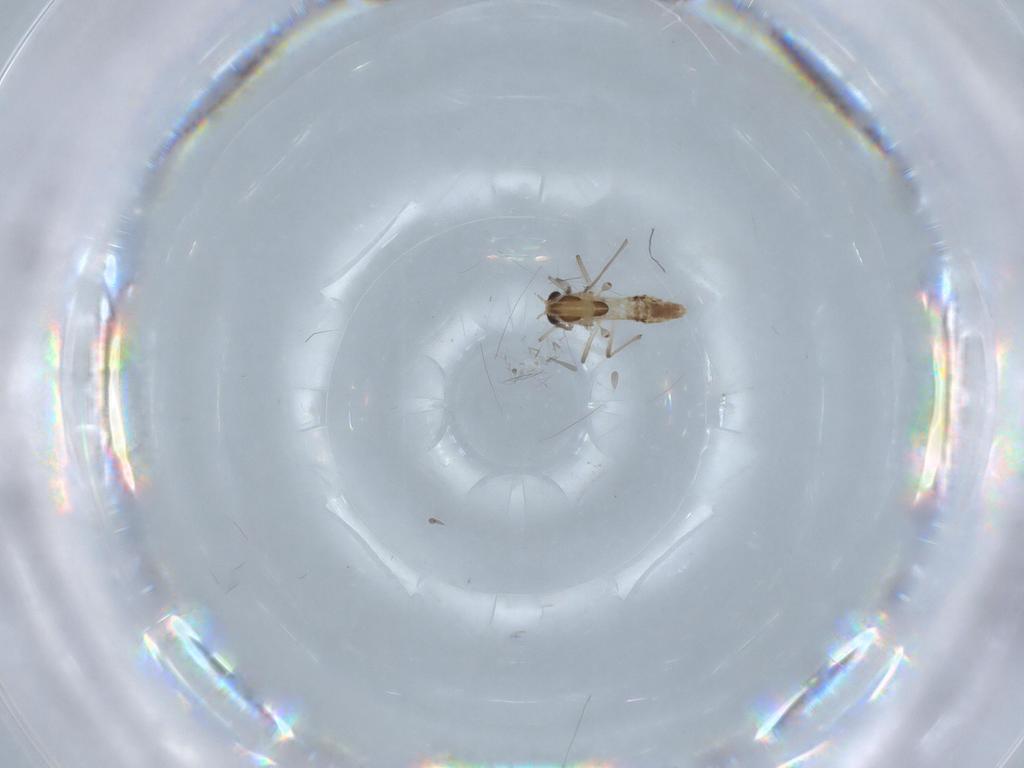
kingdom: Animalia
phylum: Arthropoda
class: Insecta
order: Diptera
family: Chironomidae
